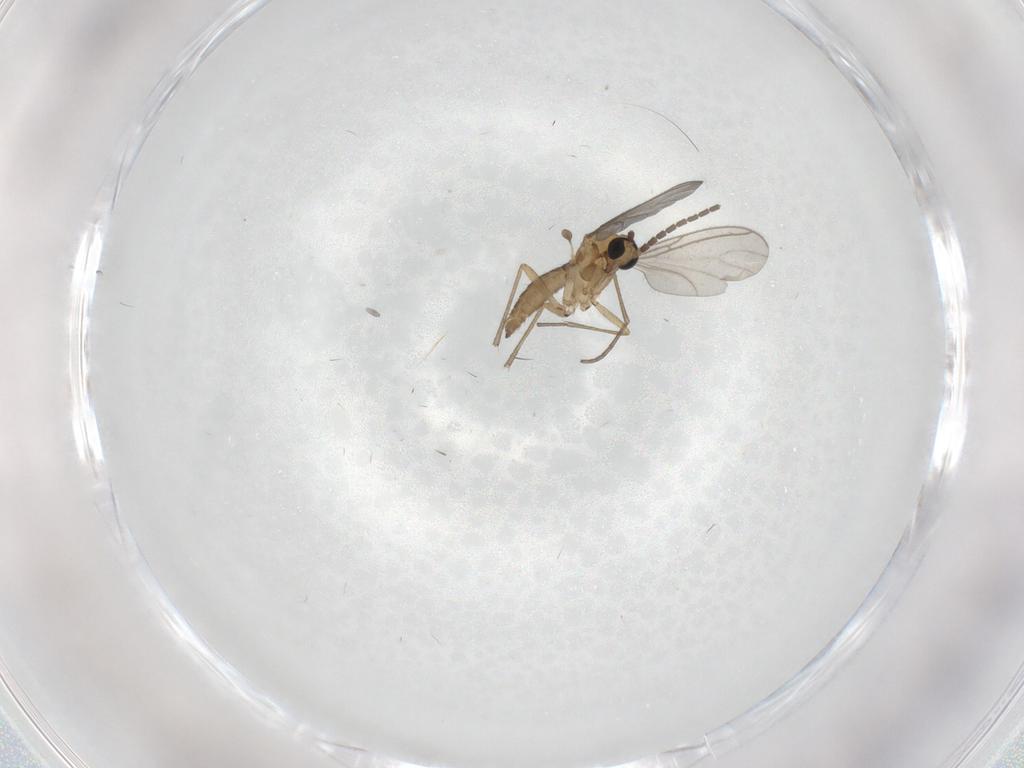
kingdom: Animalia
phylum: Arthropoda
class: Insecta
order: Diptera
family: Sciaridae
